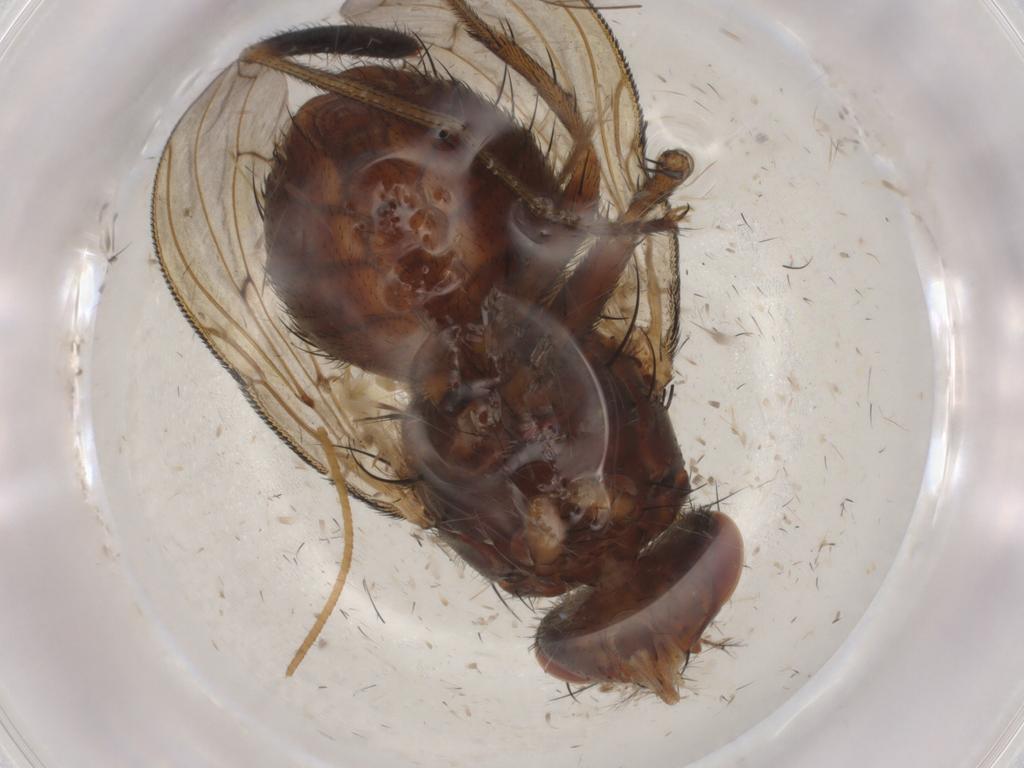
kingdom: Animalia
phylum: Arthropoda
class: Insecta
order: Diptera
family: Tachinidae
